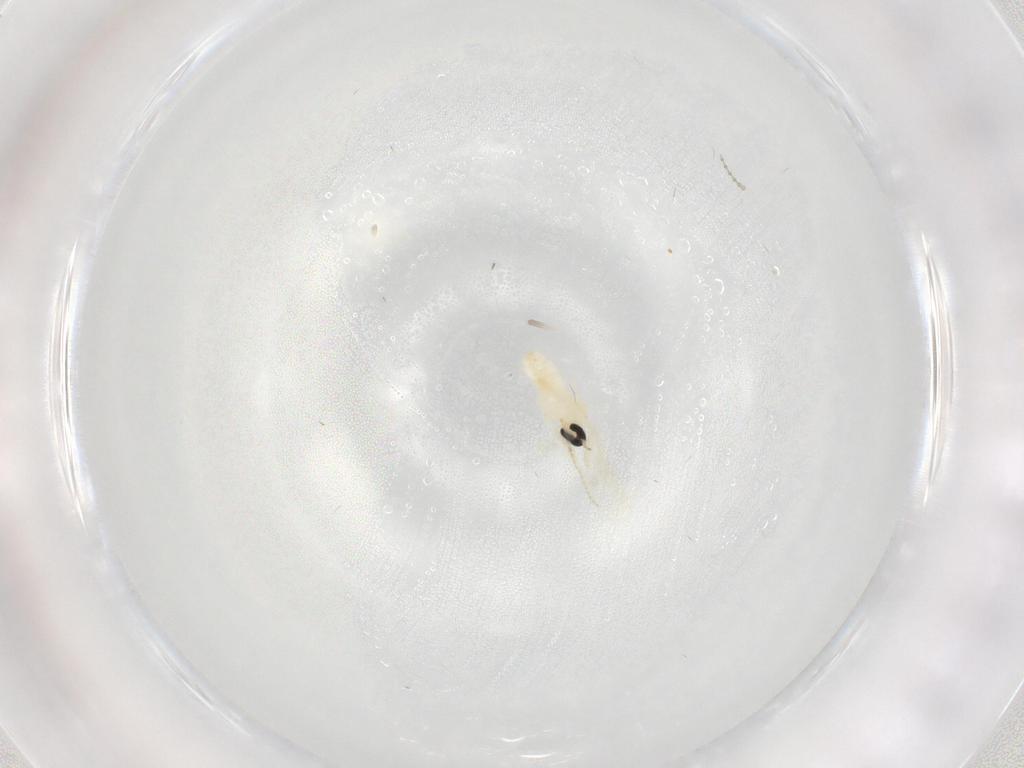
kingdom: Animalia
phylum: Arthropoda
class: Insecta
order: Diptera
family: Cecidomyiidae
